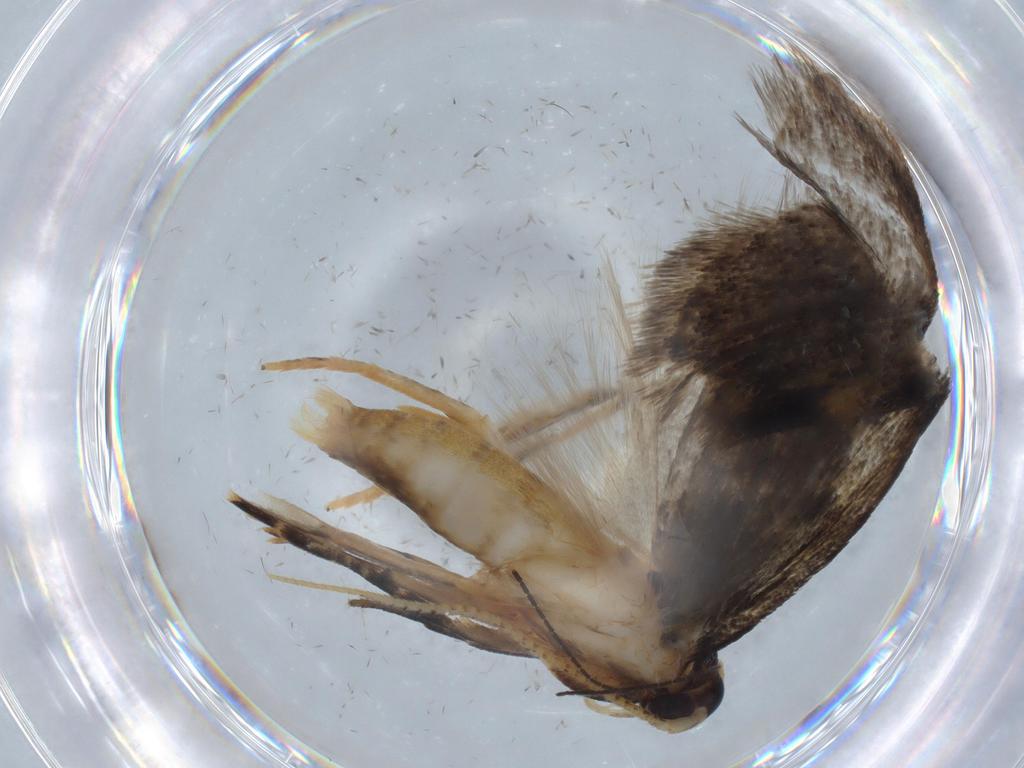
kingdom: Animalia
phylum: Arthropoda
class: Insecta
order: Lepidoptera
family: Oecophoridae
